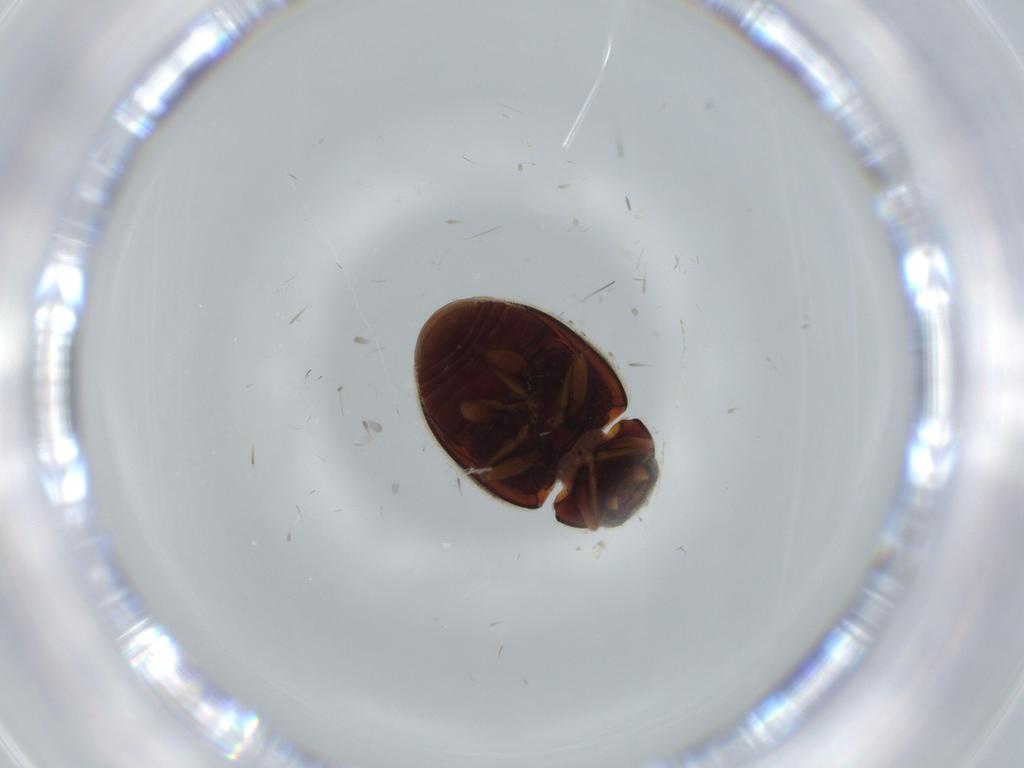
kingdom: Animalia
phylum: Arthropoda
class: Insecta
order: Coleoptera
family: Coccinellidae
